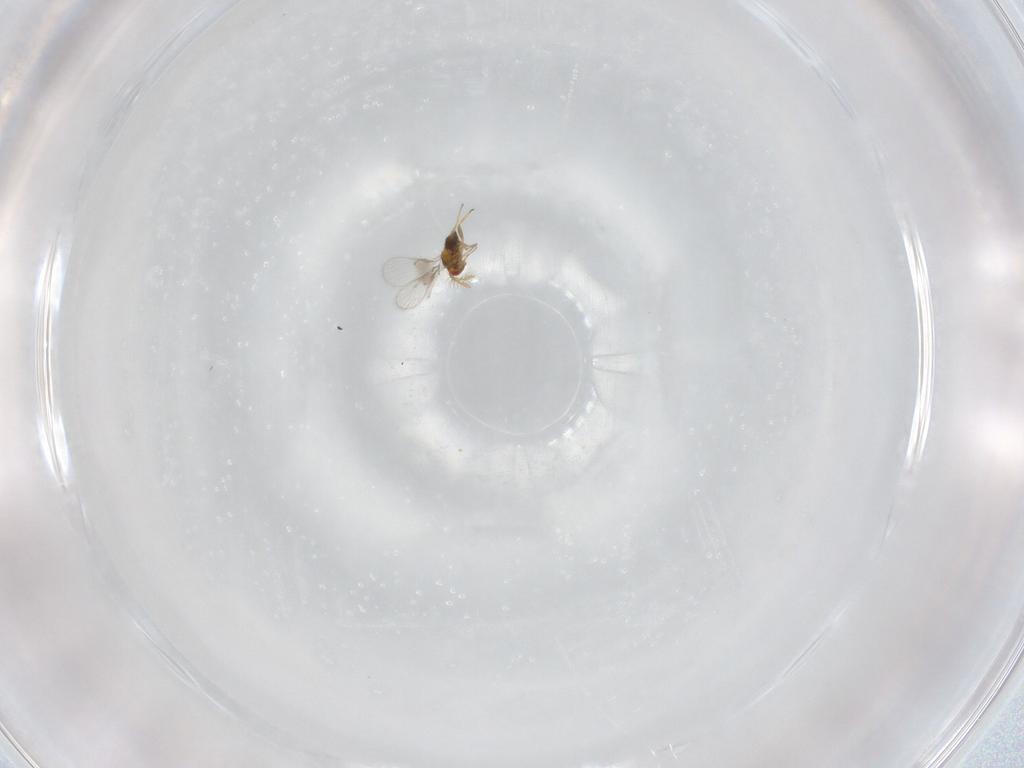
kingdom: Animalia
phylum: Arthropoda
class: Insecta
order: Hymenoptera
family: Trichogrammatidae
